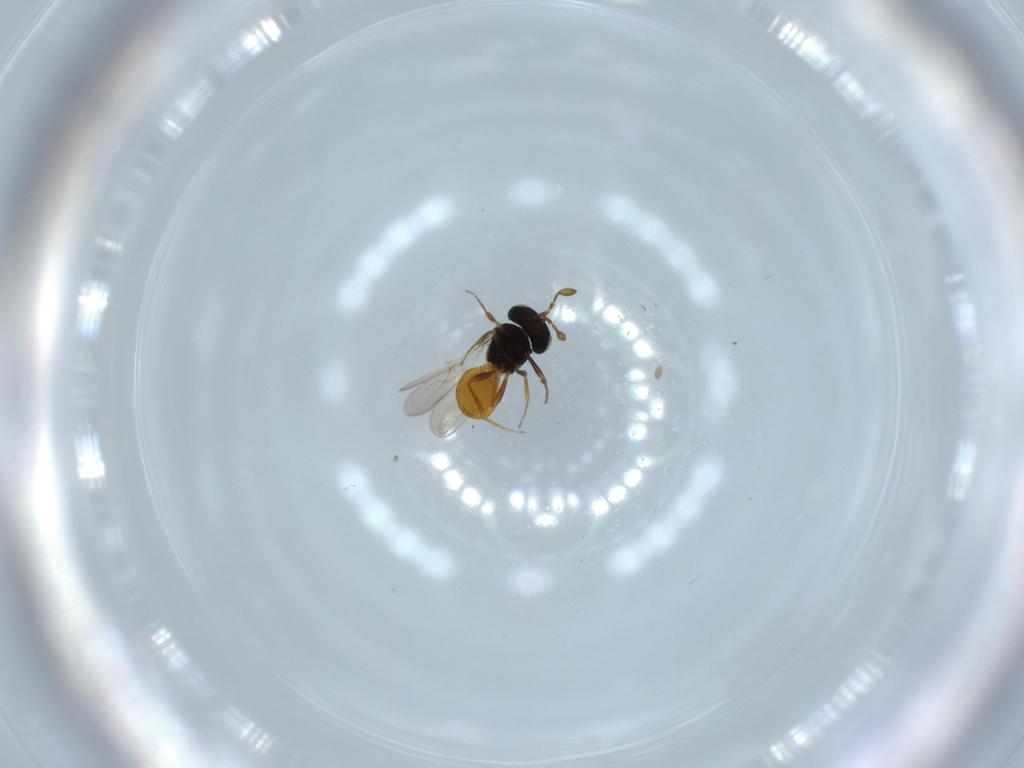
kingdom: Animalia
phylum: Arthropoda
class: Insecta
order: Hymenoptera
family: Scelionidae
